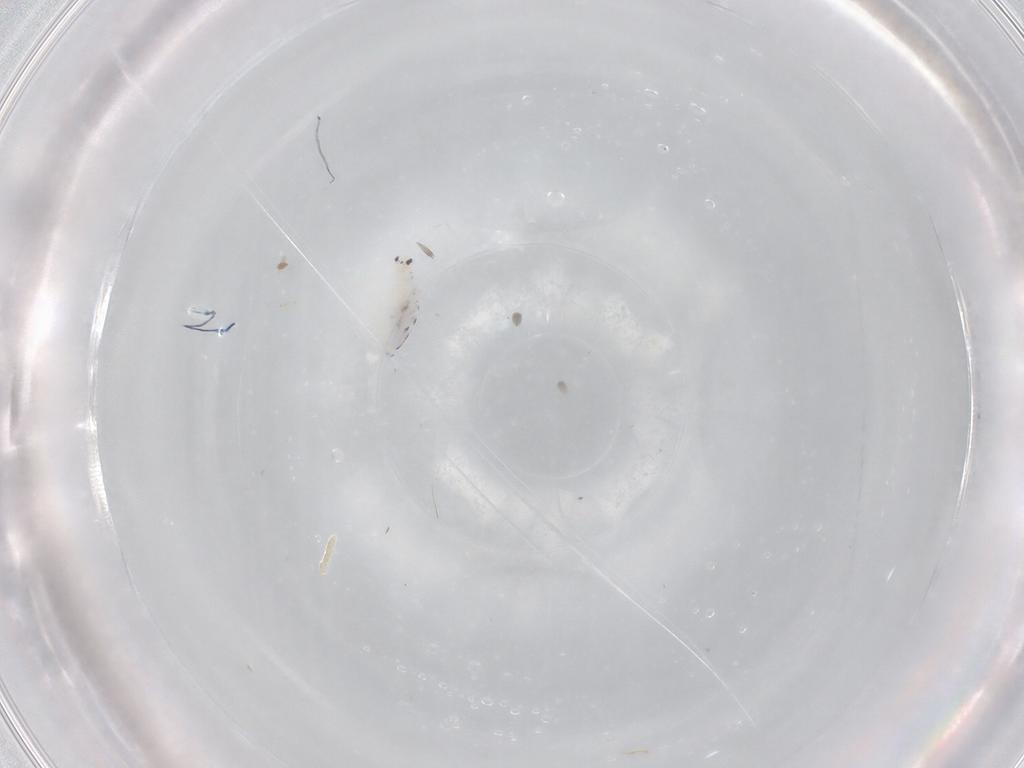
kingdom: Animalia
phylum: Arthropoda
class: Collembola
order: Entomobryomorpha
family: Entomobryidae
